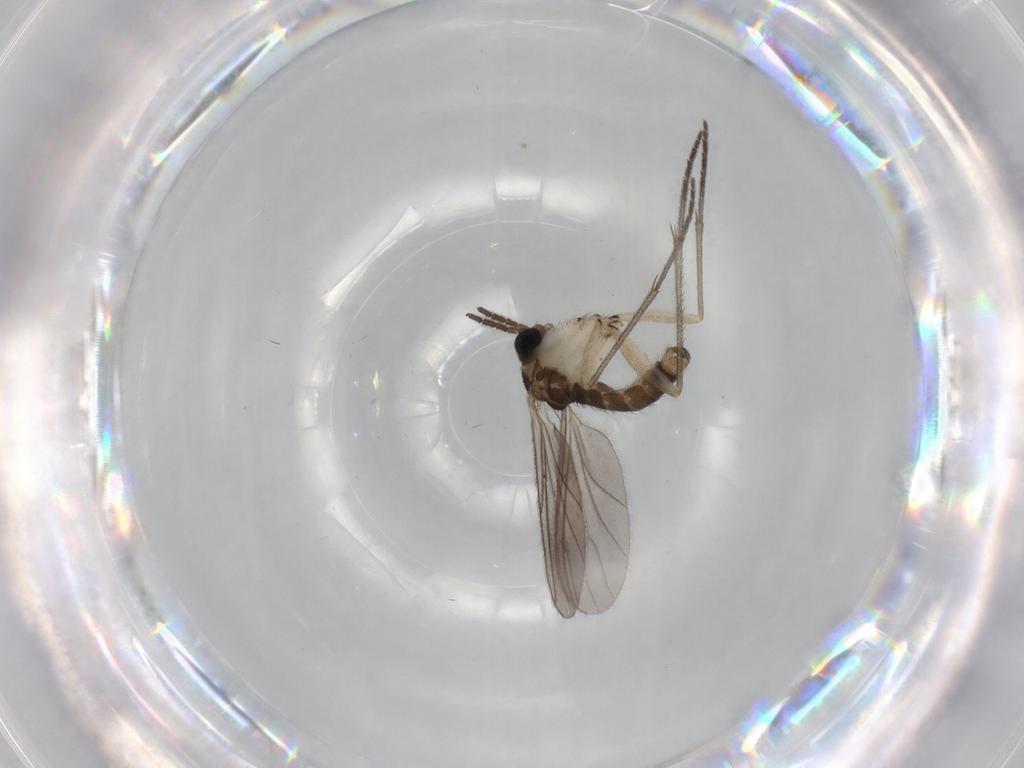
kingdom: Animalia
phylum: Arthropoda
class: Insecta
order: Diptera
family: Sciaridae
